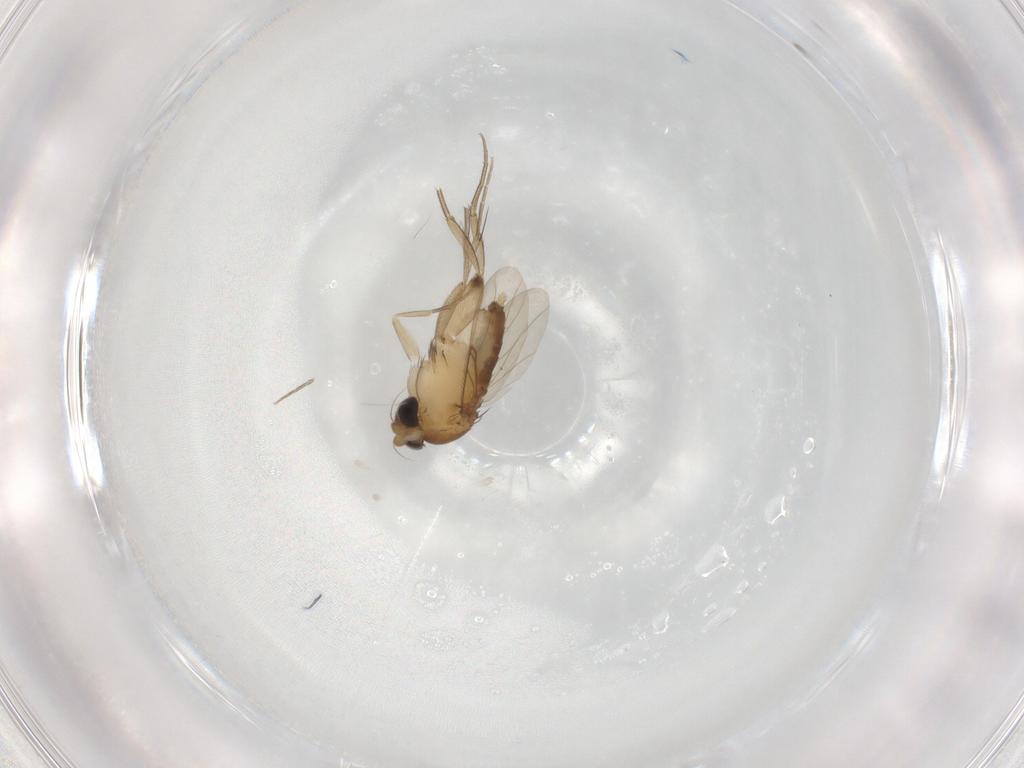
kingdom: Animalia
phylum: Arthropoda
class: Insecta
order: Diptera
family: Phoridae
